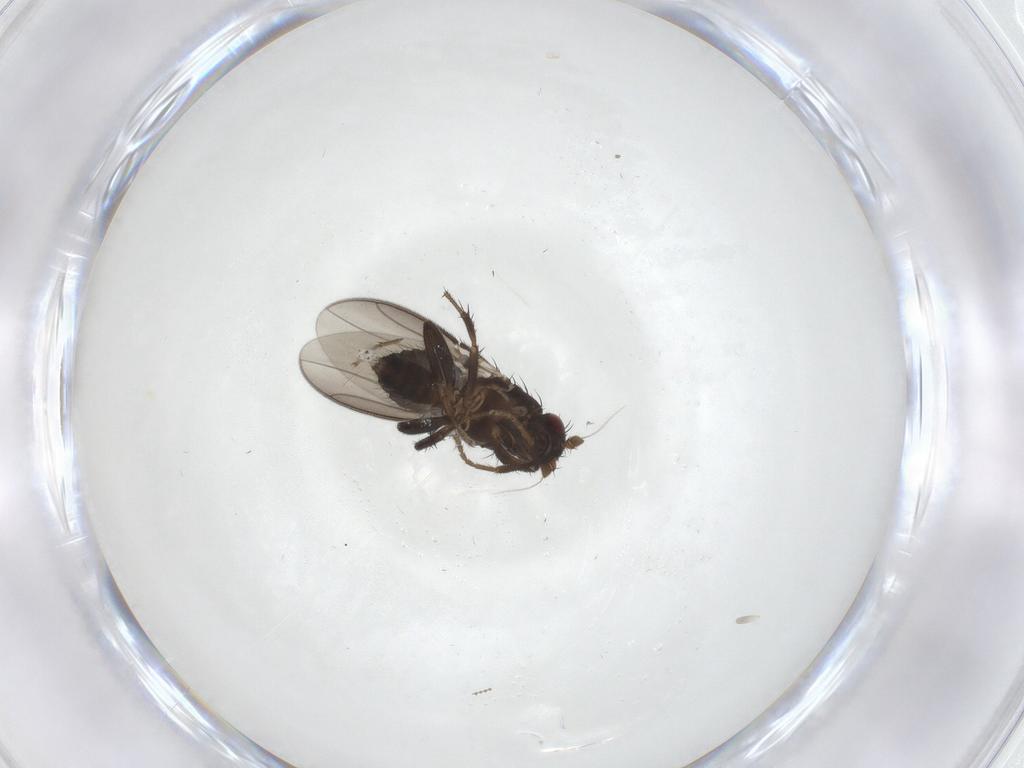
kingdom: Animalia
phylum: Arthropoda
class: Insecta
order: Diptera
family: Sphaeroceridae
